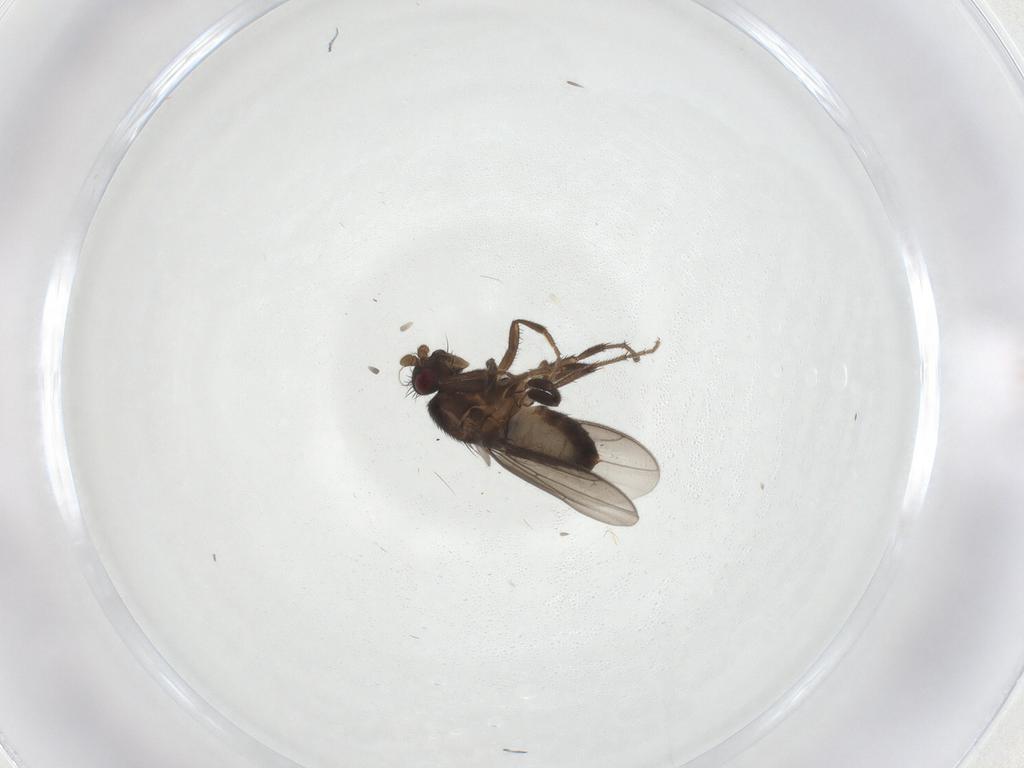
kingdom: Animalia
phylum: Arthropoda
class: Insecta
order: Diptera
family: Sphaeroceridae
